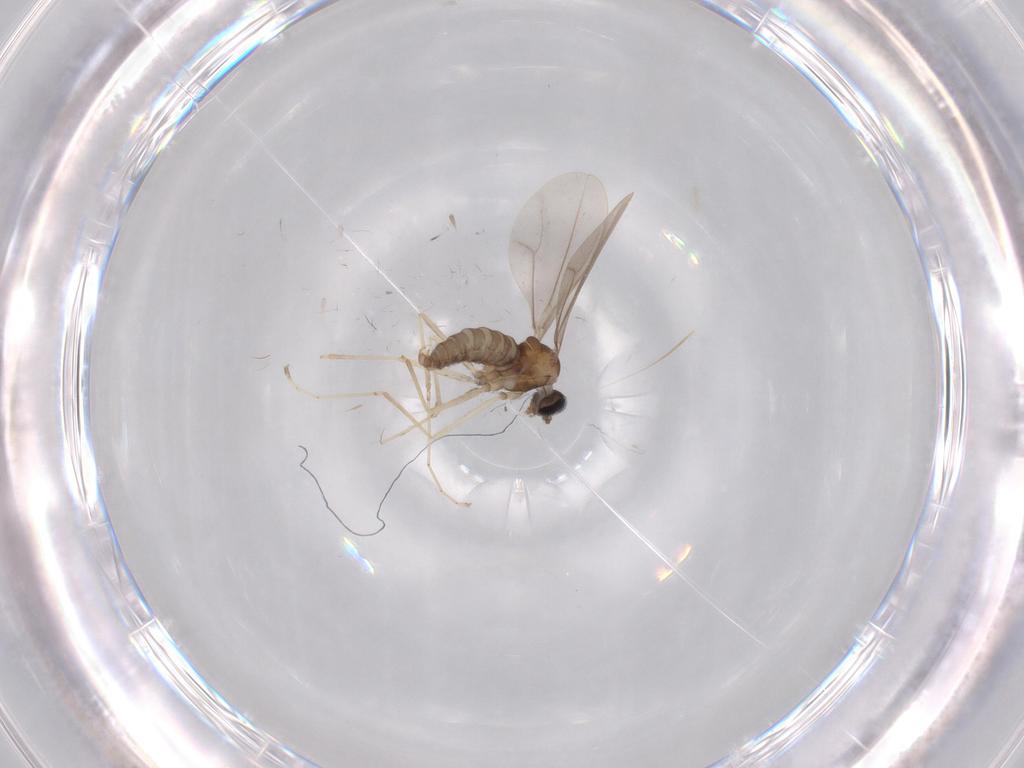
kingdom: Animalia
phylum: Arthropoda
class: Insecta
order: Diptera
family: Cecidomyiidae
